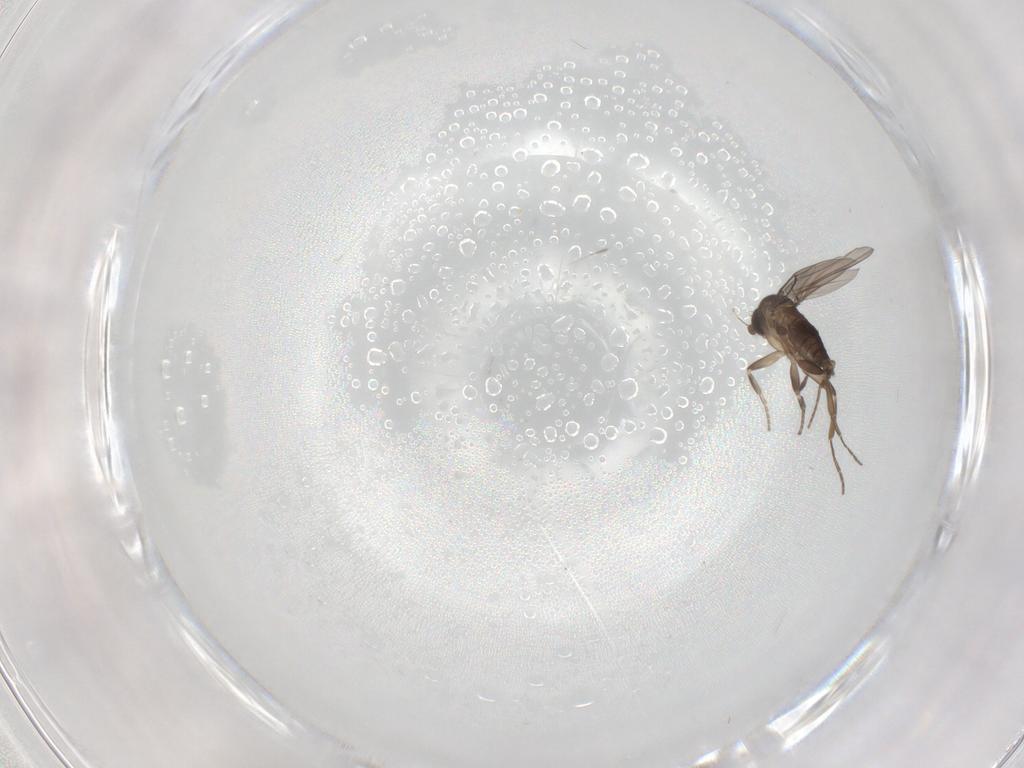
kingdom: Animalia
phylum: Arthropoda
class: Insecta
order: Diptera
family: Phoridae
